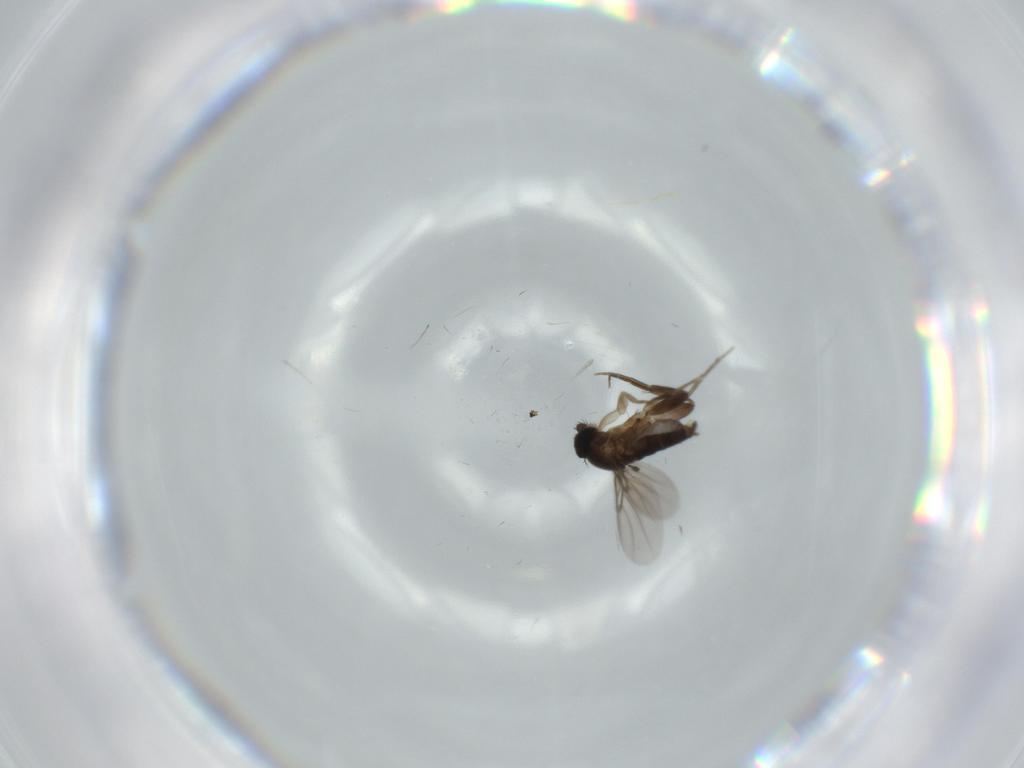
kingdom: Animalia
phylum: Arthropoda
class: Insecta
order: Diptera
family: Phoridae
